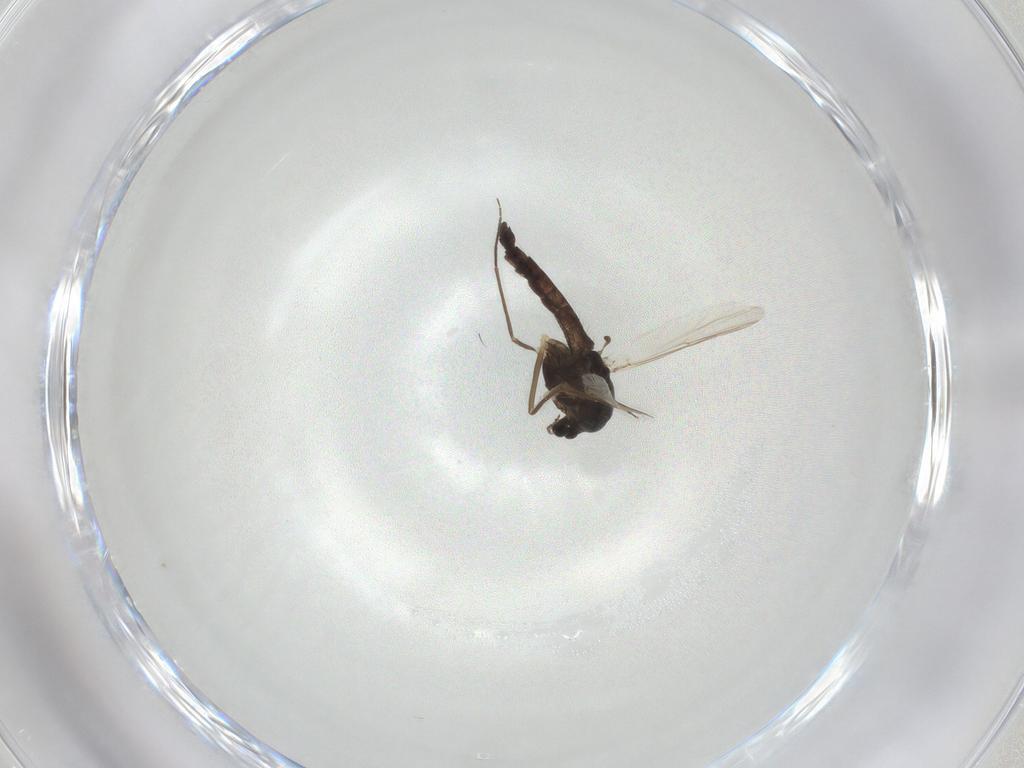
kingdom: Animalia
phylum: Arthropoda
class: Insecta
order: Diptera
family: Chironomidae
